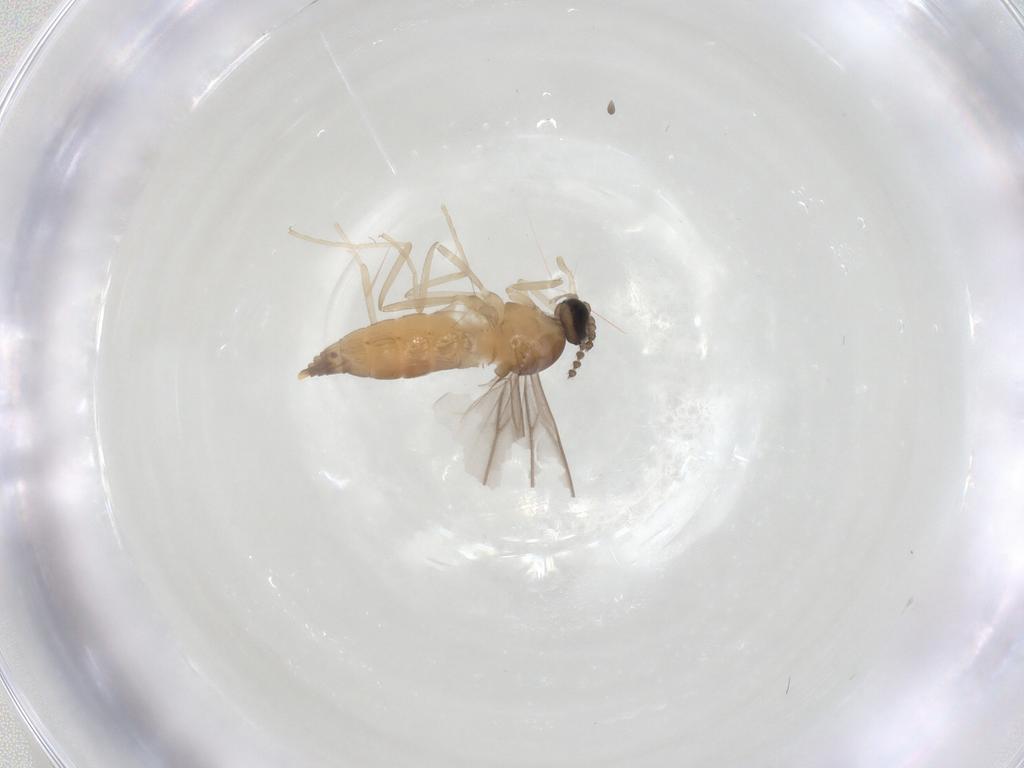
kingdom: Animalia
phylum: Arthropoda
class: Insecta
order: Diptera
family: Cecidomyiidae
